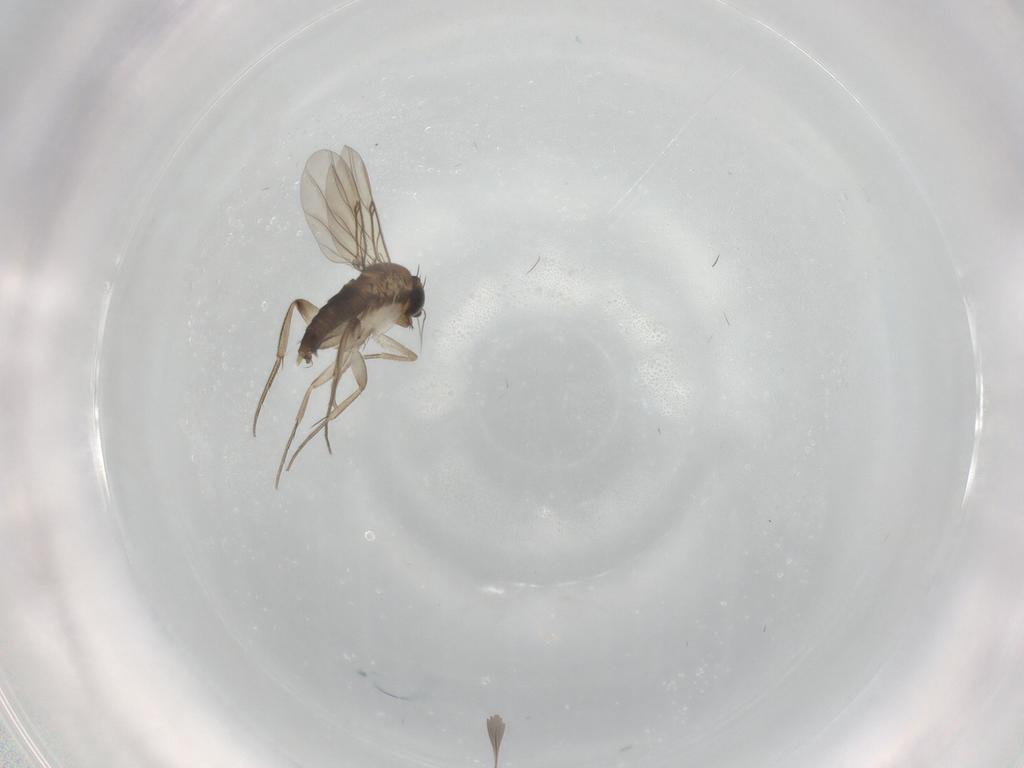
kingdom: Animalia
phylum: Arthropoda
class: Insecta
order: Diptera
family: Phoridae
